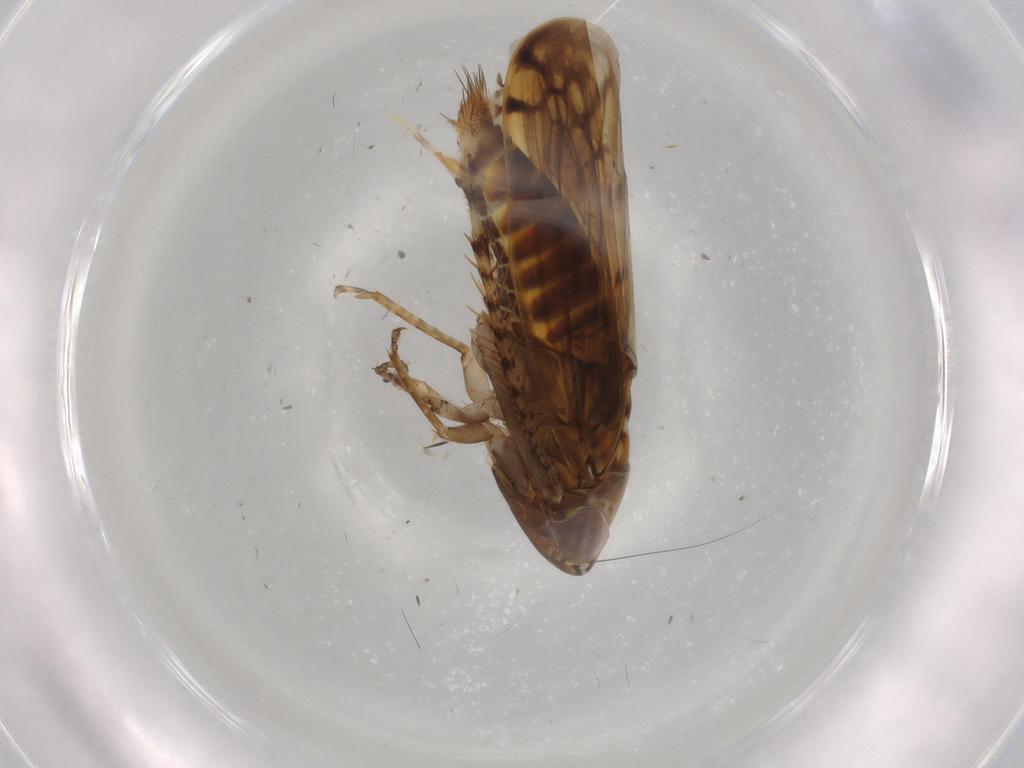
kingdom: Animalia
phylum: Arthropoda
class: Insecta
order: Hemiptera
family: Cicadellidae
